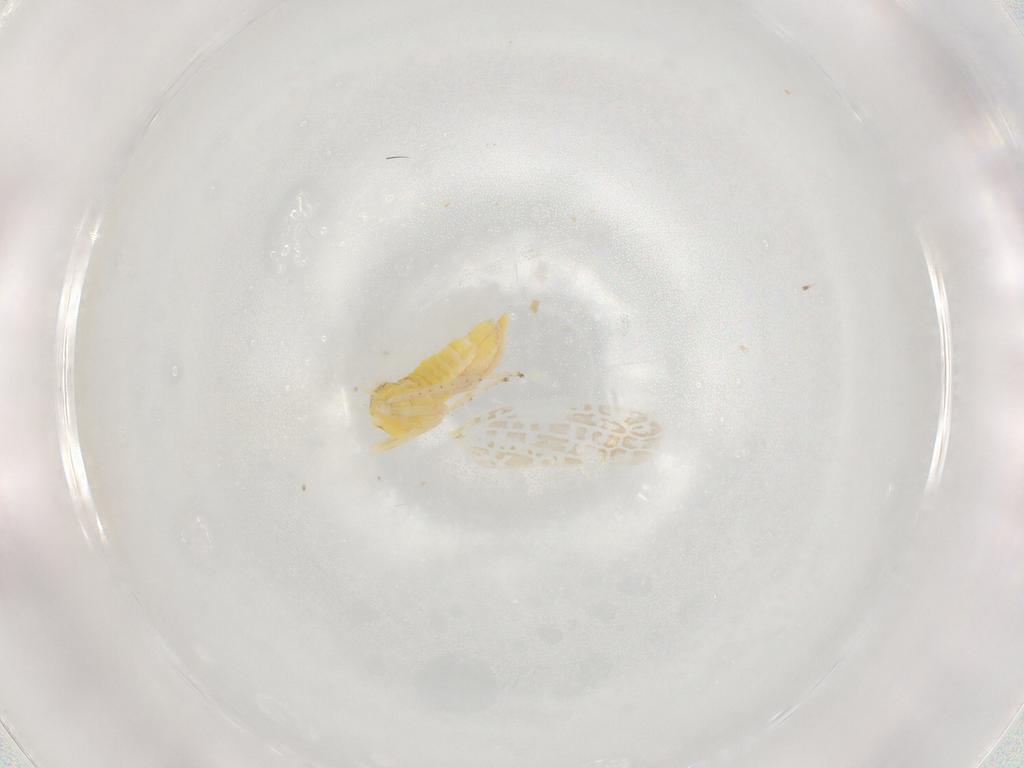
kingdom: Animalia
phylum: Arthropoda
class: Insecta
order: Hemiptera
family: Cicadellidae
